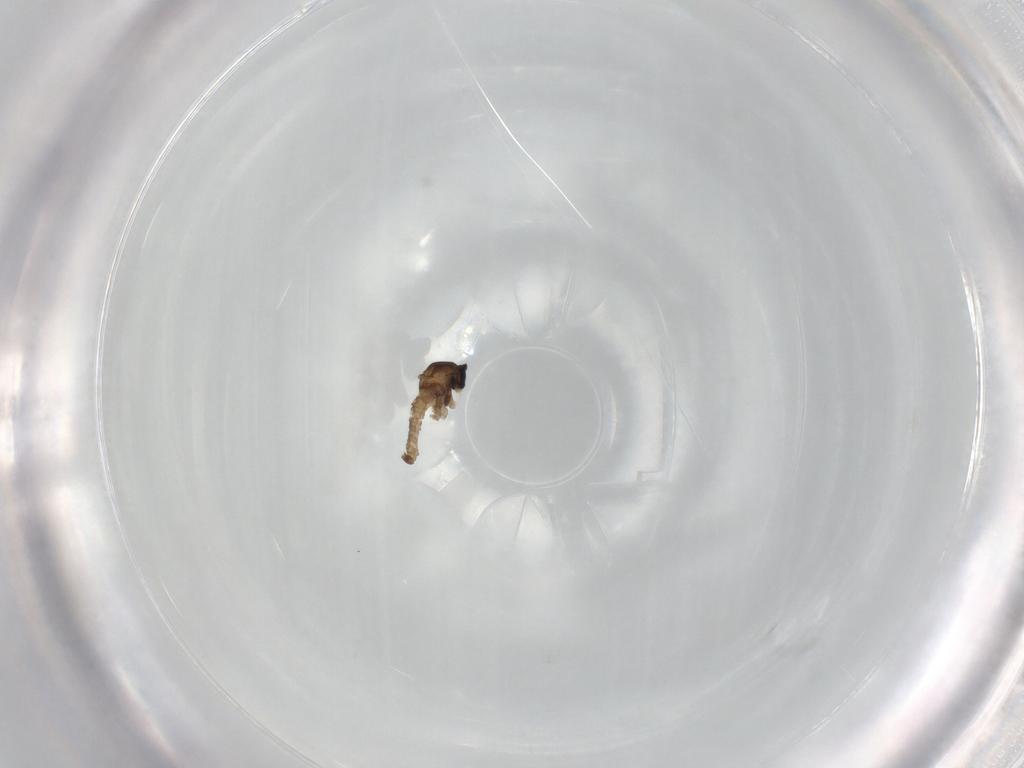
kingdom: Animalia
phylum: Arthropoda
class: Insecta
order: Diptera
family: Cecidomyiidae
